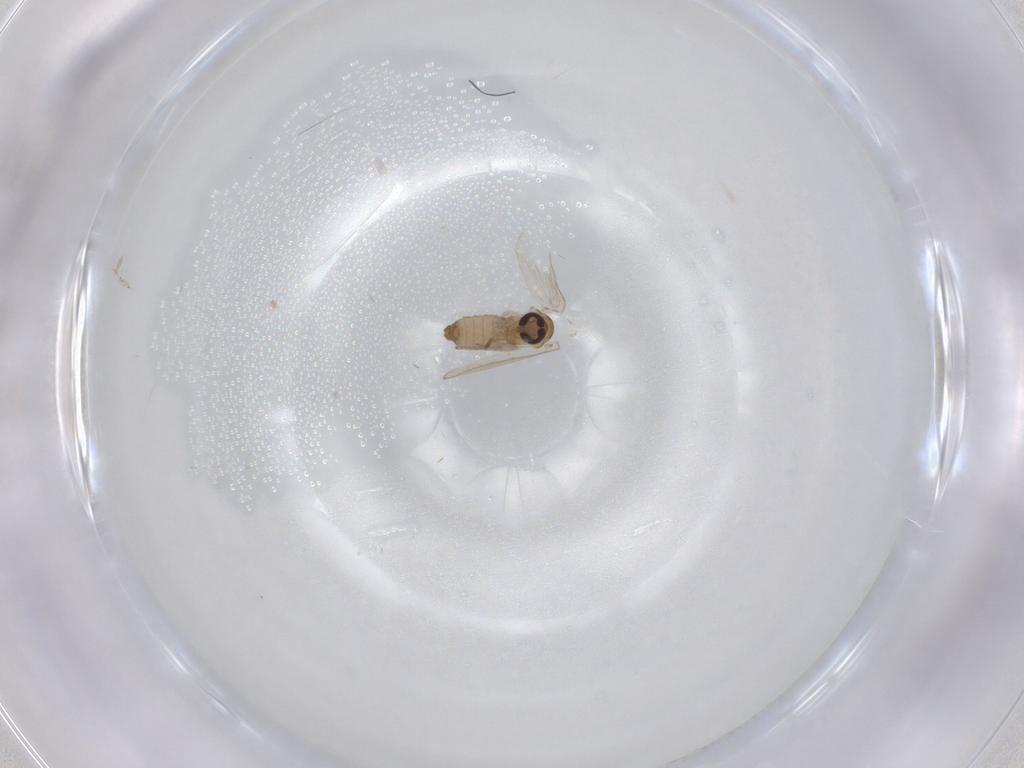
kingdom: Animalia
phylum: Arthropoda
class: Insecta
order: Diptera
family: Psychodidae
